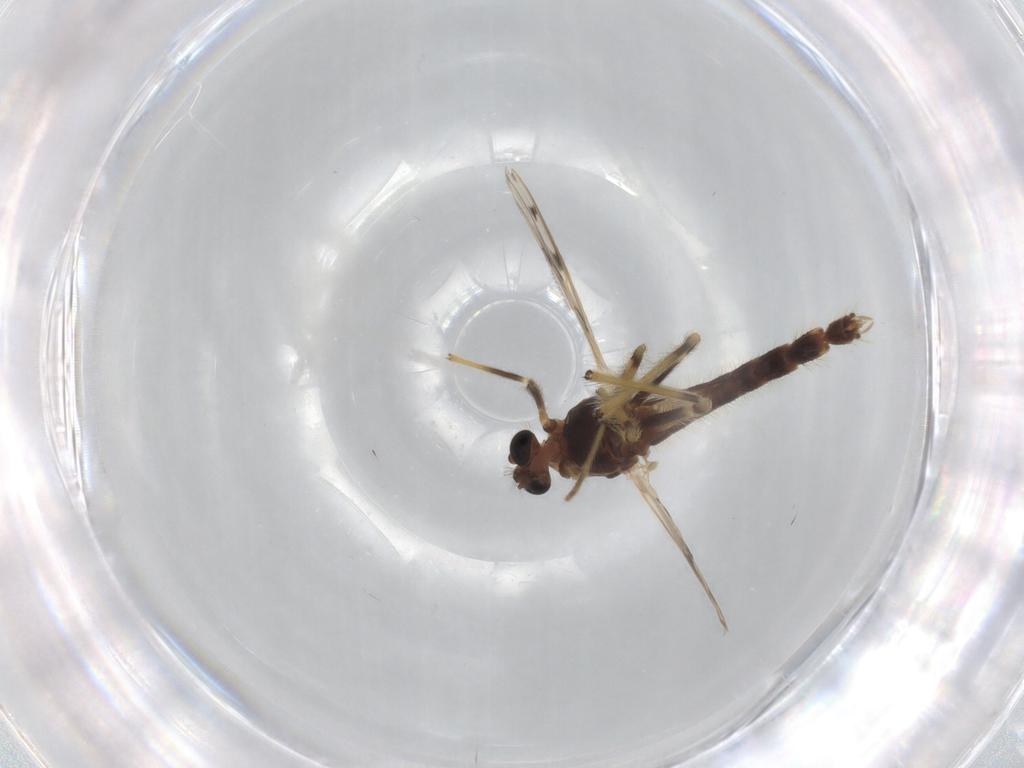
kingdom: Animalia
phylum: Arthropoda
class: Insecta
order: Diptera
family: Chironomidae
